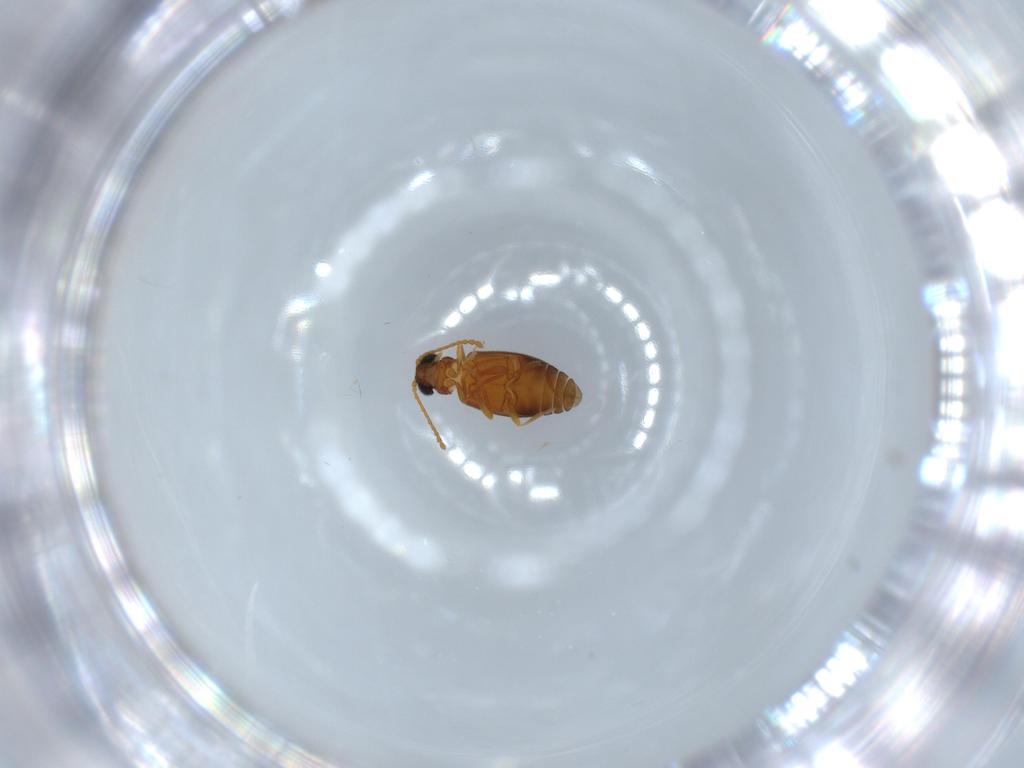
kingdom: Animalia
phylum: Arthropoda
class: Insecta
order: Coleoptera
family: Aderidae
